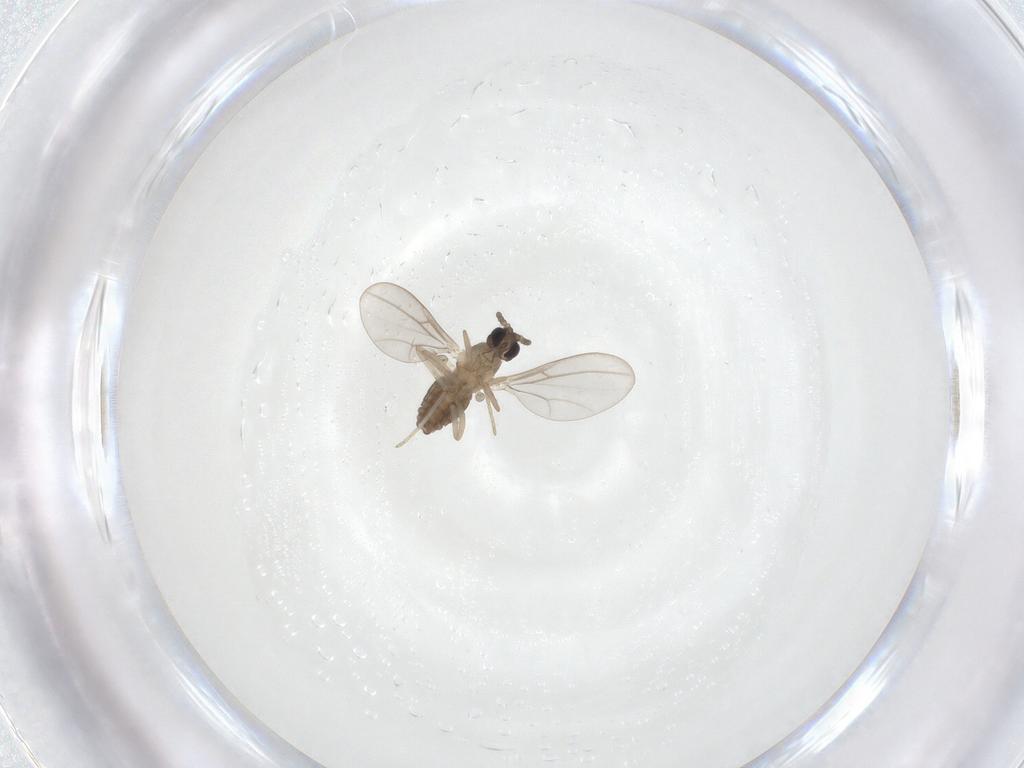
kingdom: Animalia
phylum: Arthropoda
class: Insecta
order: Diptera
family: Cecidomyiidae
